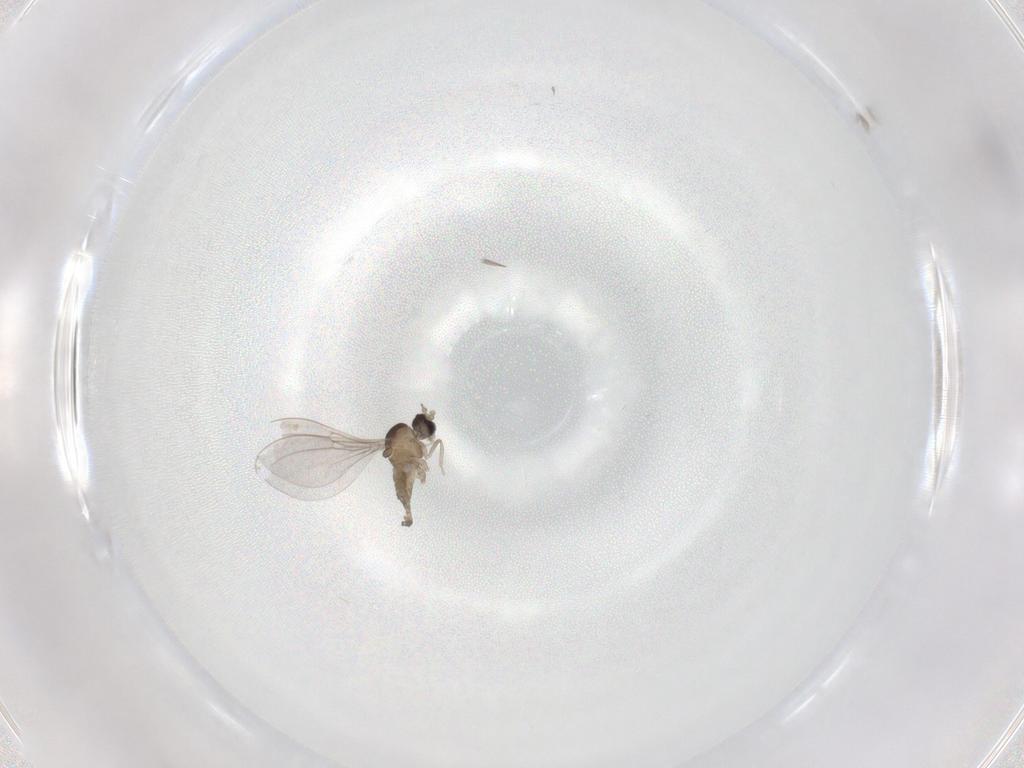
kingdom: Animalia
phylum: Arthropoda
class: Insecta
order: Diptera
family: Cecidomyiidae
